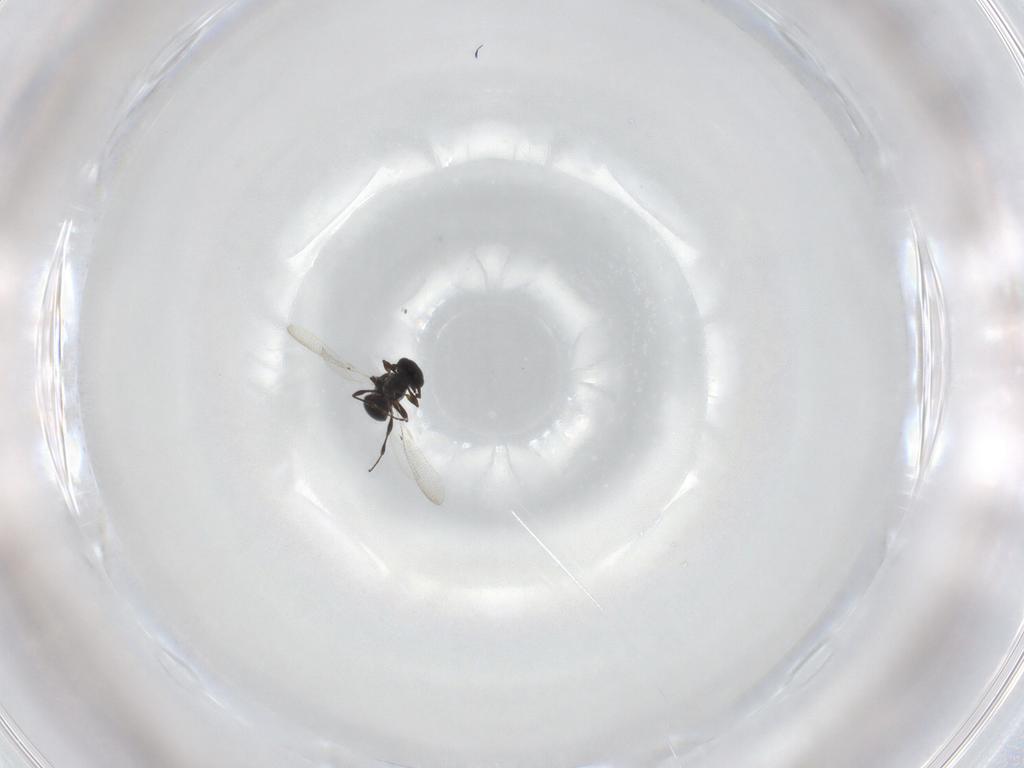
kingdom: Animalia
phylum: Arthropoda
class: Insecta
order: Hymenoptera
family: Platygastridae
